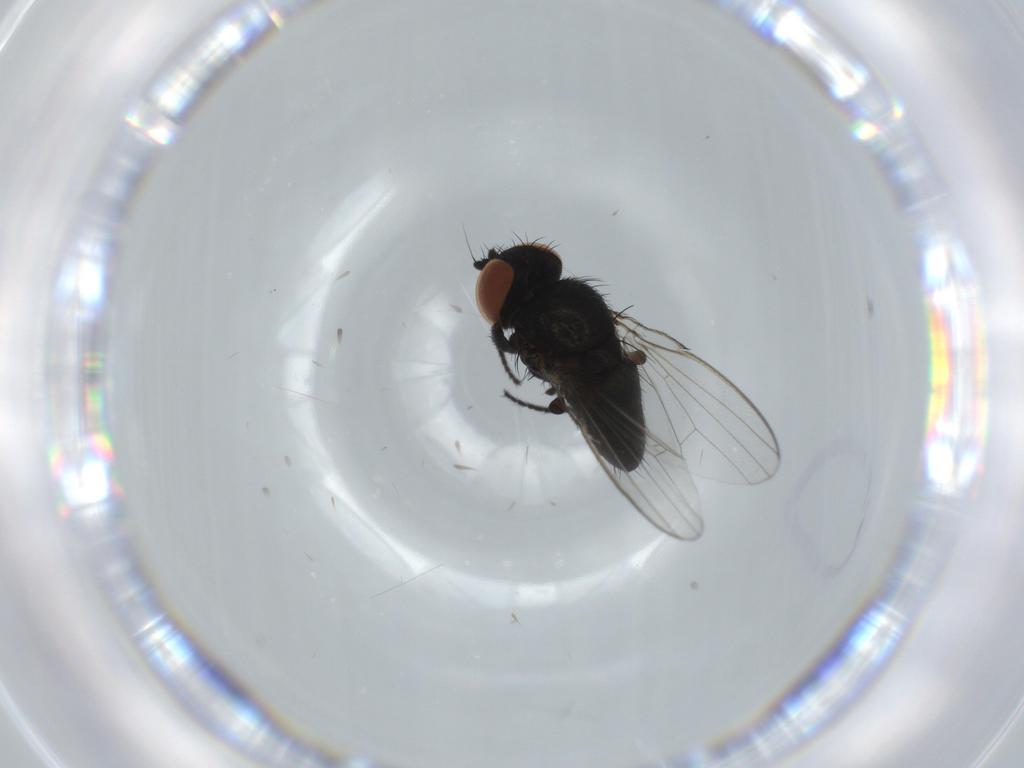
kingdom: Animalia
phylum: Arthropoda
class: Insecta
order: Diptera
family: Milichiidae
